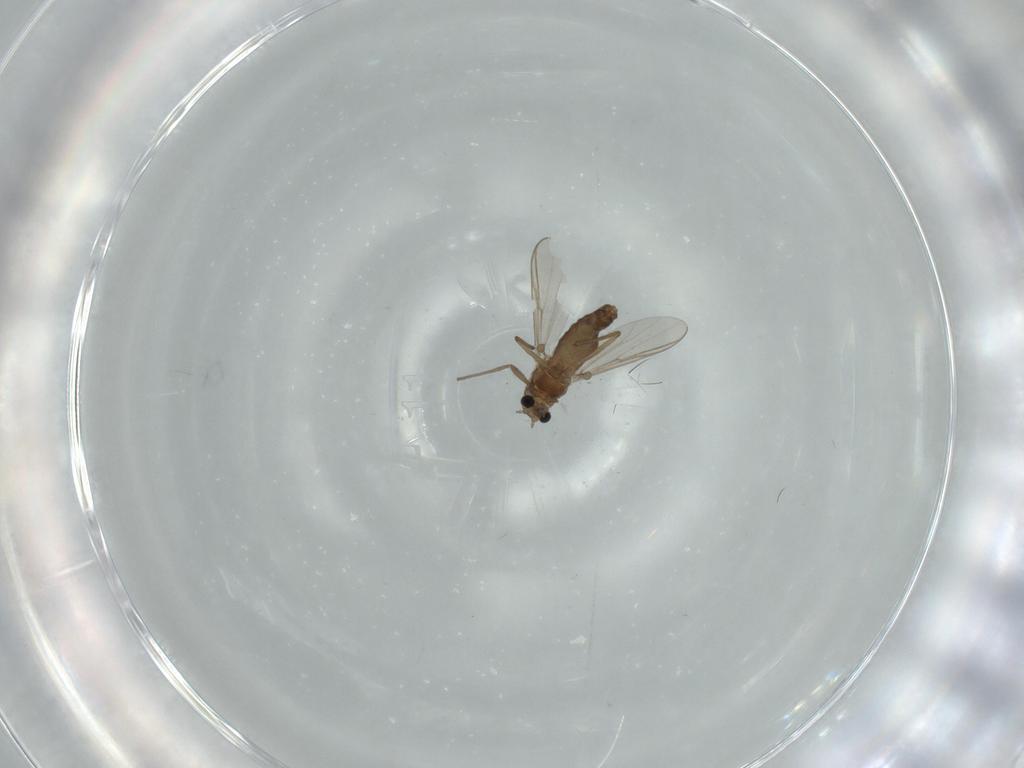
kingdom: Animalia
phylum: Arthropoda
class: Insecta
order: Diptera
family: Chironomidae
